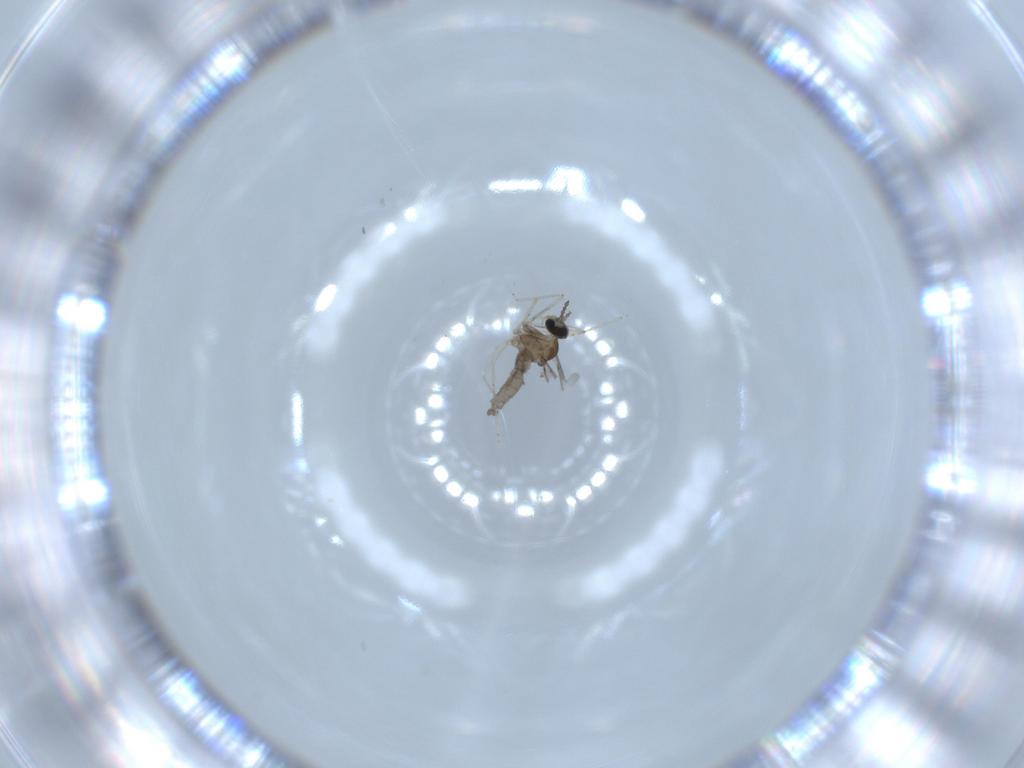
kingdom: Animalia
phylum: Arthropoda
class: Insecta
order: Diptera
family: Cecidomyiidae
